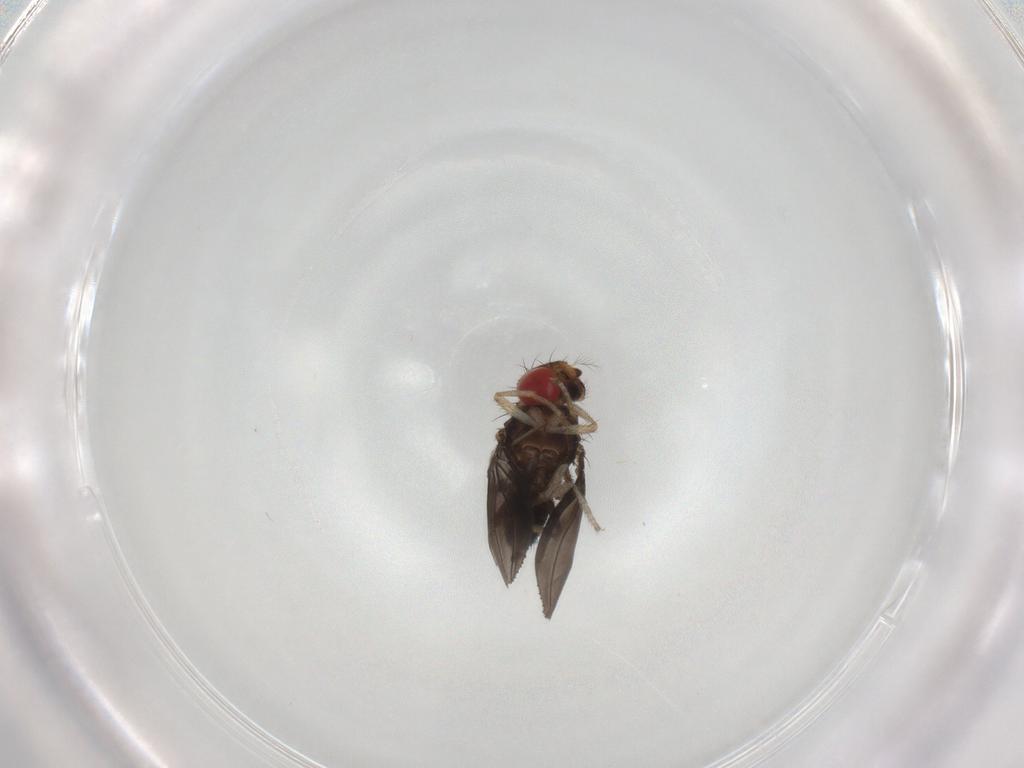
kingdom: Animalia
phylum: Arthropoda
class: Insecta
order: Diptera
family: Drosophilidae
